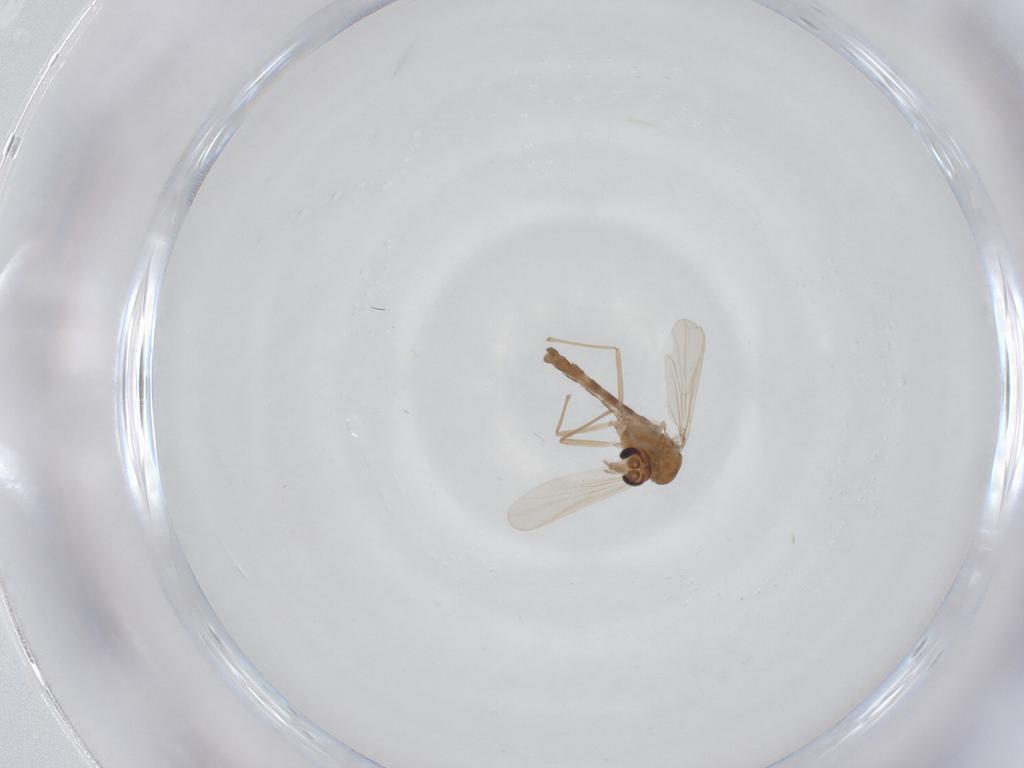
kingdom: Animalia
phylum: Arthropoda
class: Insecta
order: Diptera
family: Chironomidae
